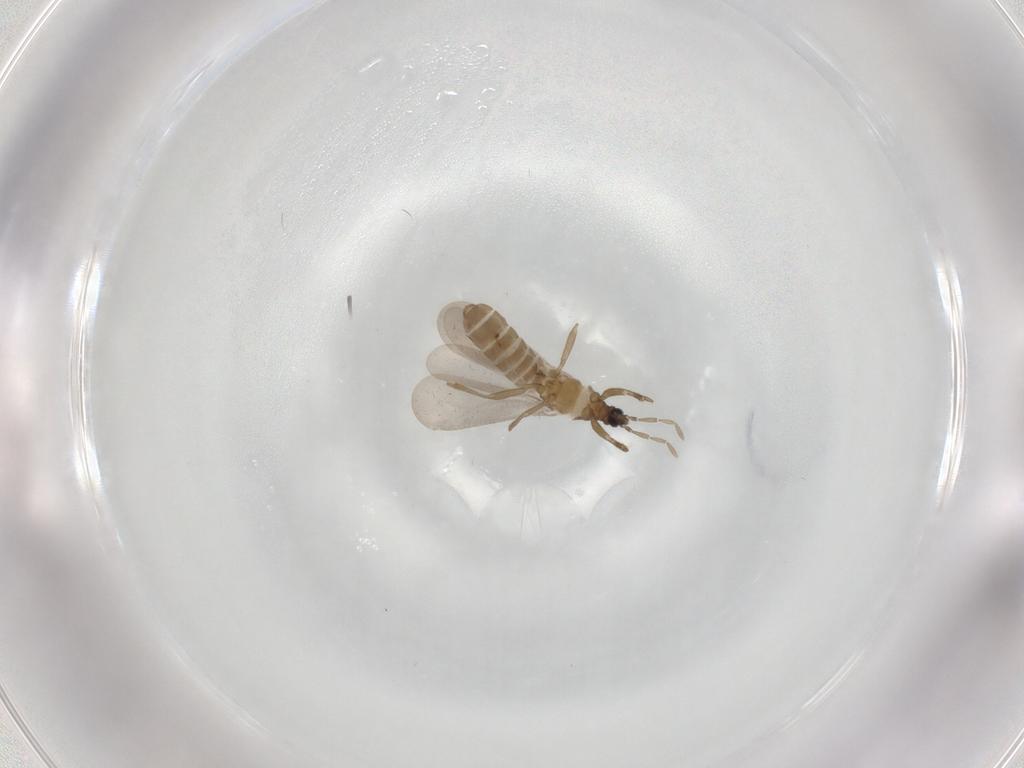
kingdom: Animalia
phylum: Arthropoda
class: Insecta
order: Hemiptera
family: Enicocephalidae
